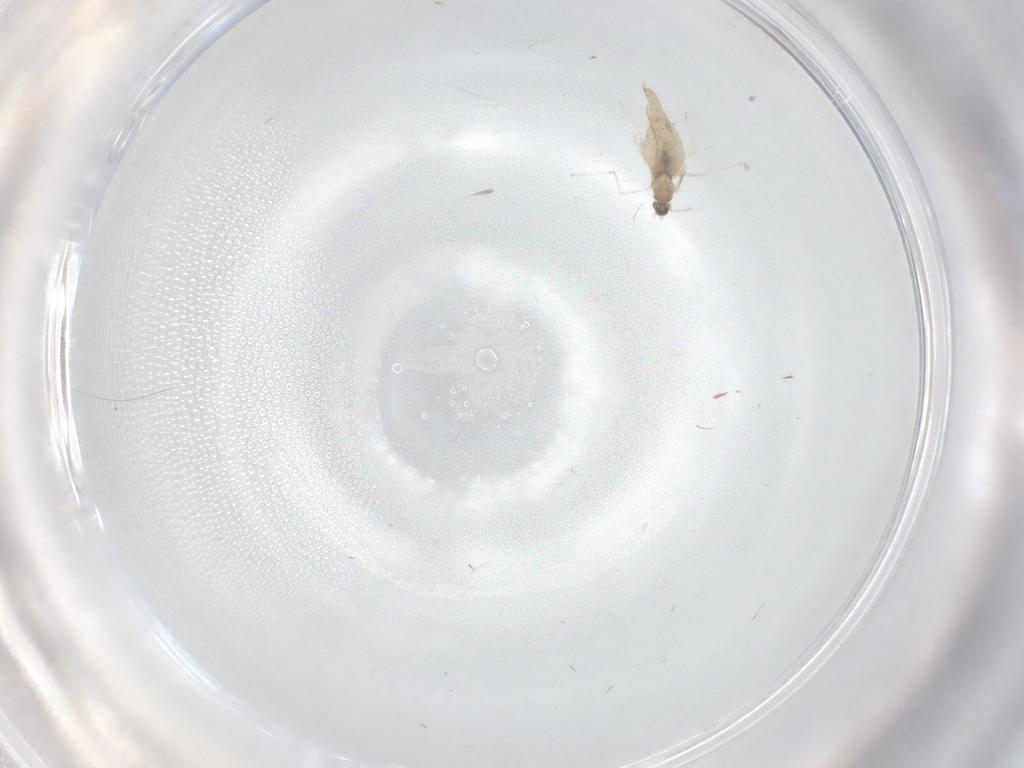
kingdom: Animalia
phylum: Arthropoda
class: Insecta
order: Diptera
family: Cecidomyiidae
